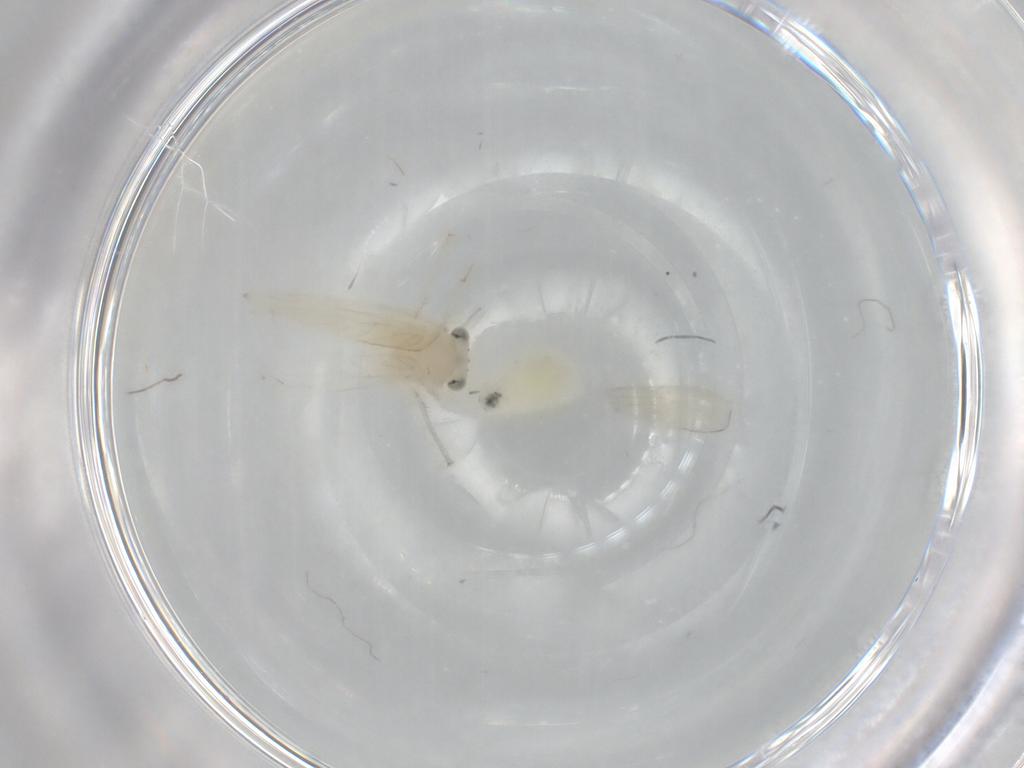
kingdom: Animalia
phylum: Arthropoda
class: Insecta
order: Psocodea
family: Lepidopsocidae
